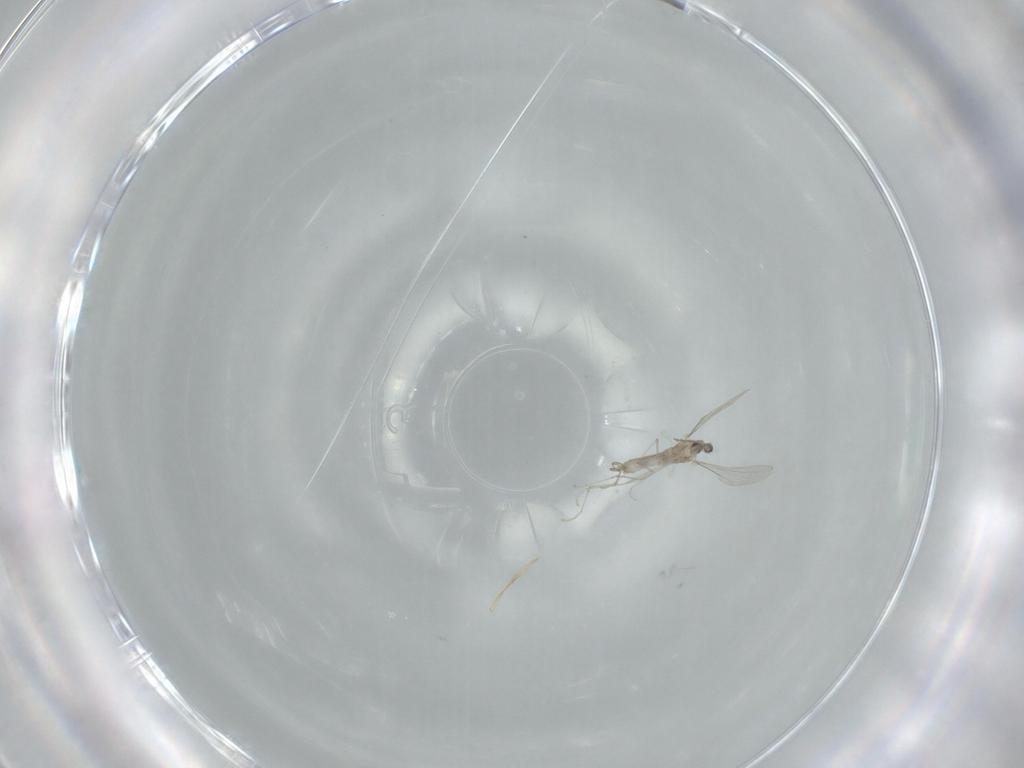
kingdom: Animalia
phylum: Arthropoda
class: Insecta
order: Diptera
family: Cecidomyiidae
